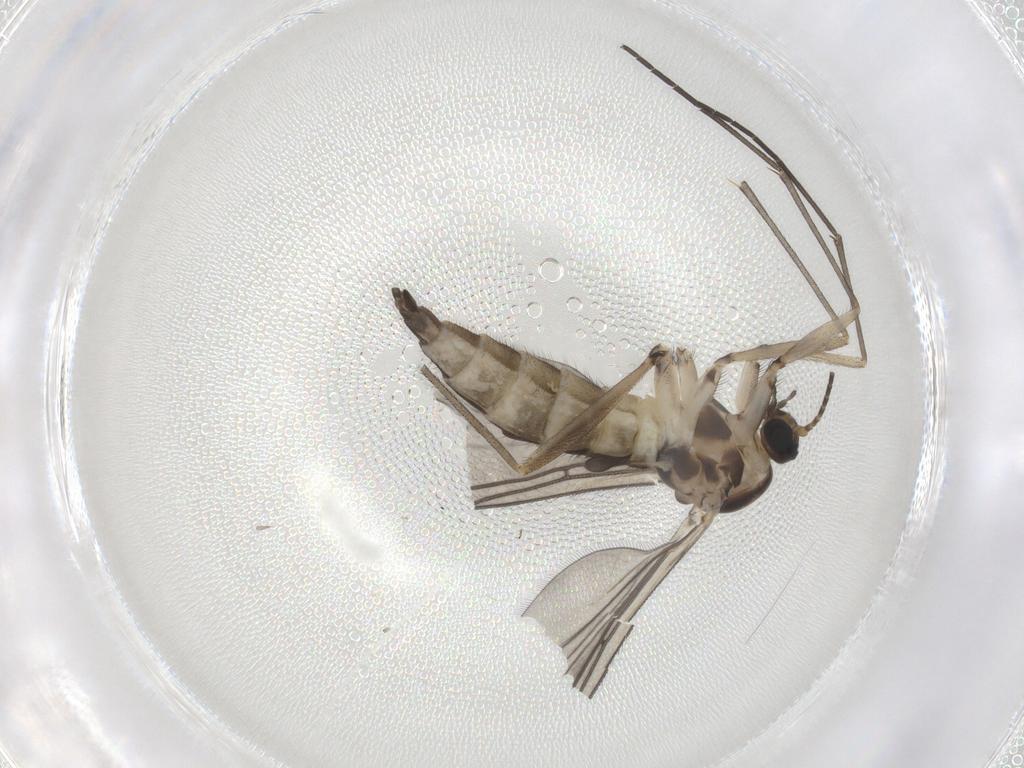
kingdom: Animalia
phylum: Arthropoda
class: Insecta
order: Diptera
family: Sciaridae
